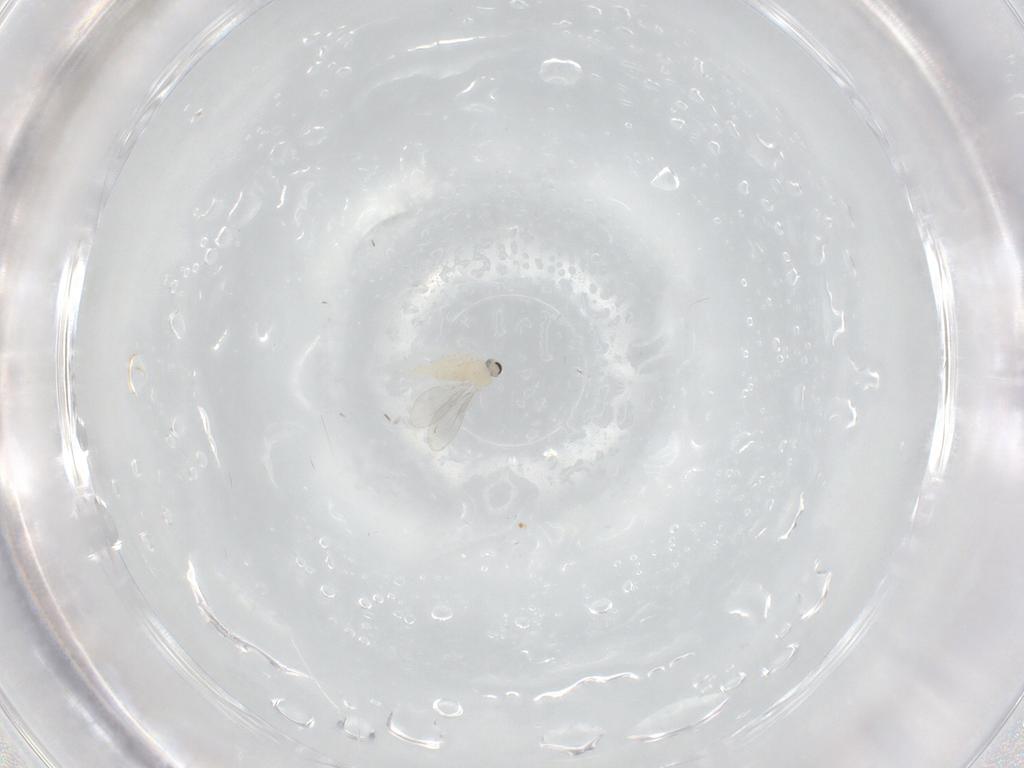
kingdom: Animalia
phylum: Arthropoda
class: Insecta
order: Diptera
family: Cecidomyiidae
